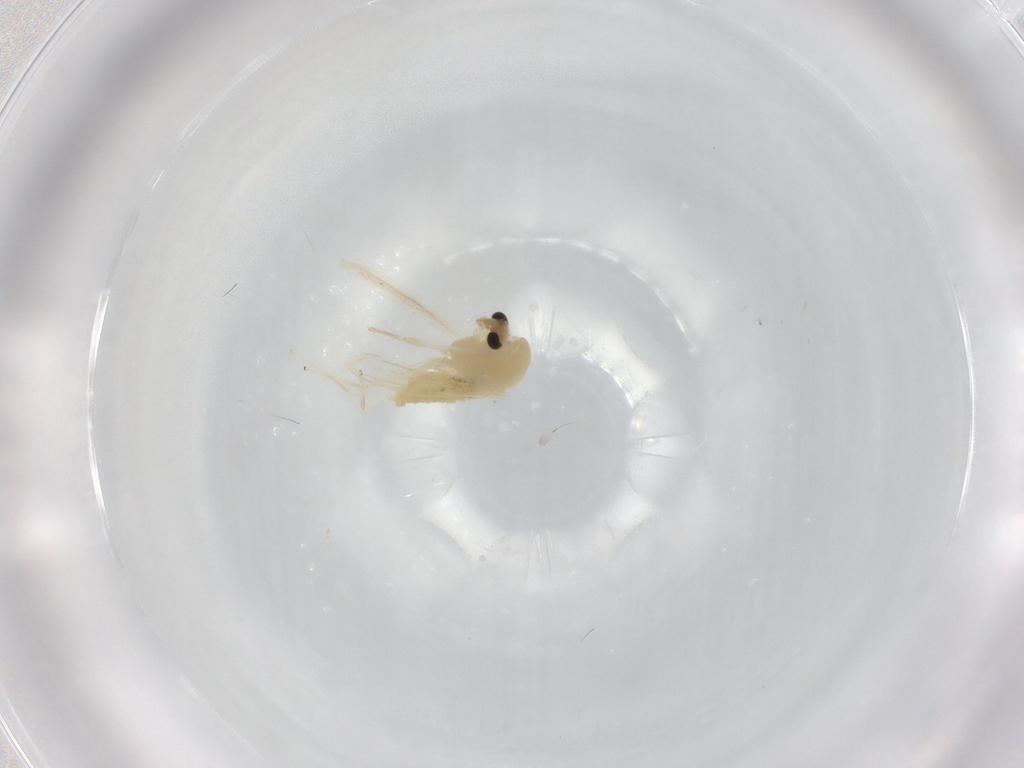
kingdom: Animalia
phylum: Arthropoda
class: Insecta
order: Diptera
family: Cecidomyiidae
